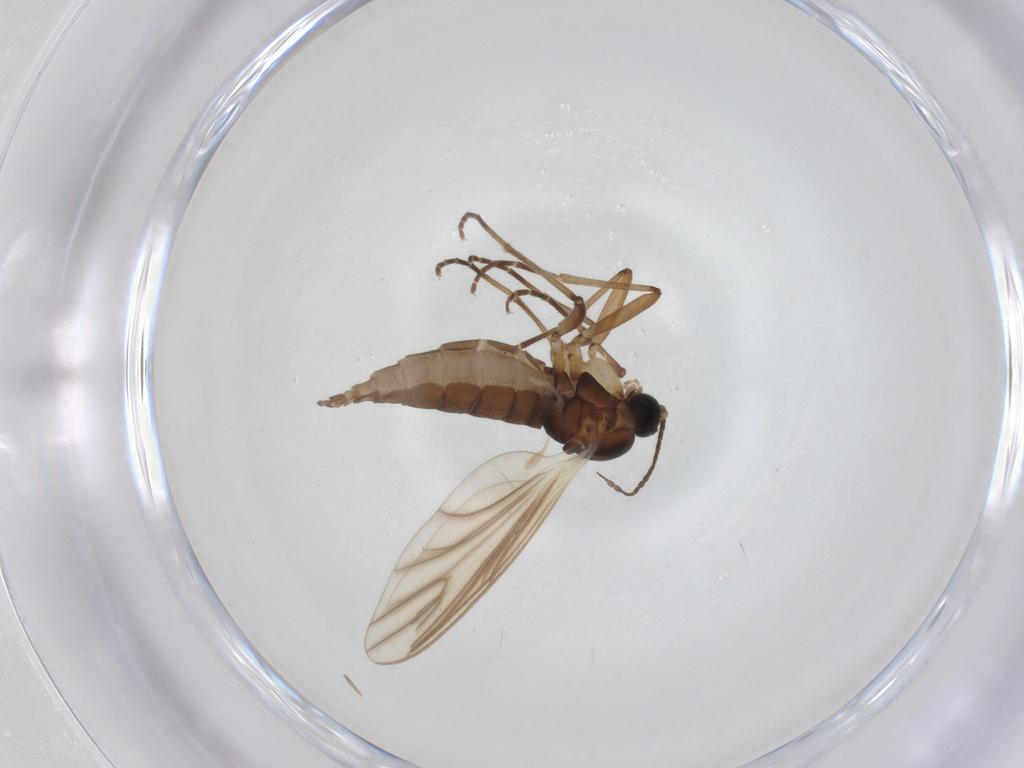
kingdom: Animalia
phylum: Arthropoda
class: Insecta
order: Diptera
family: Sciaridae
